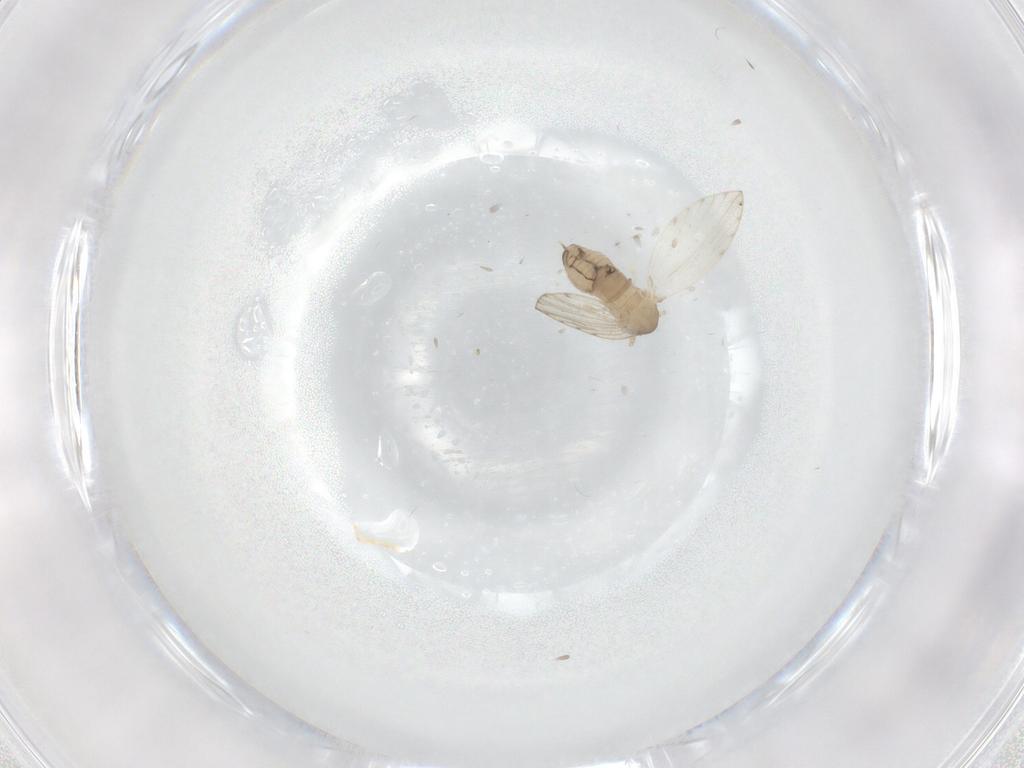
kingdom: Animalia
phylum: Arthropoda
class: Insecta
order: Diptera
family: Psychodidae
